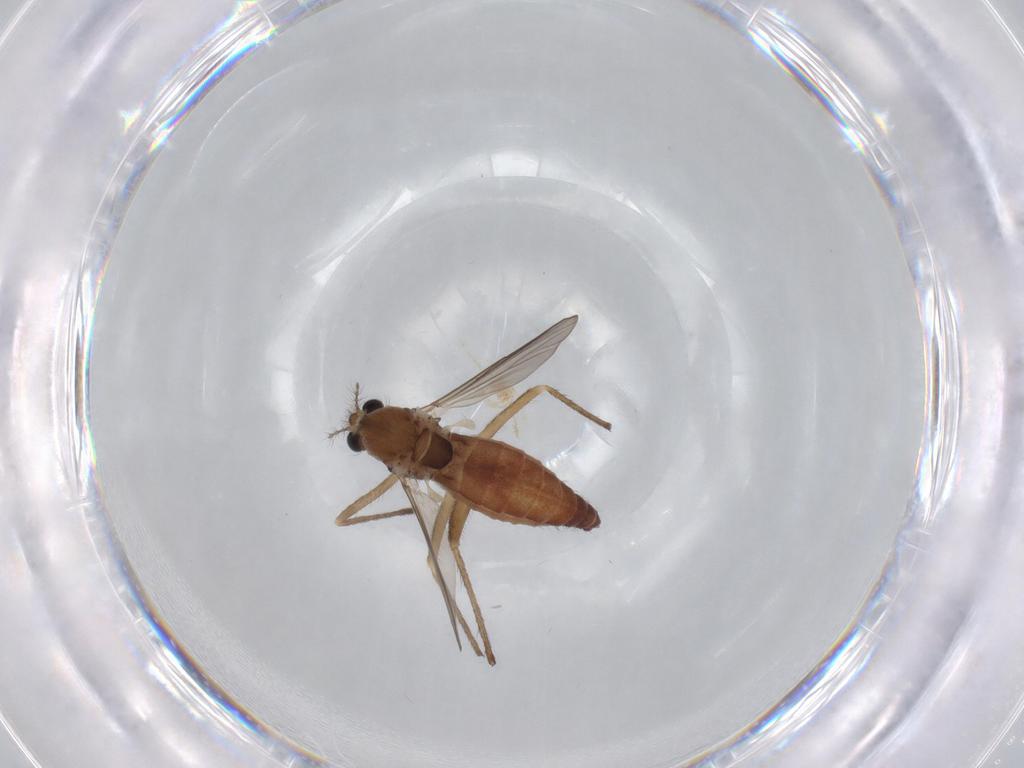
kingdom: Animalia
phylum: Arthropoda
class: Insecta
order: Diptera
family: Chironomidae
